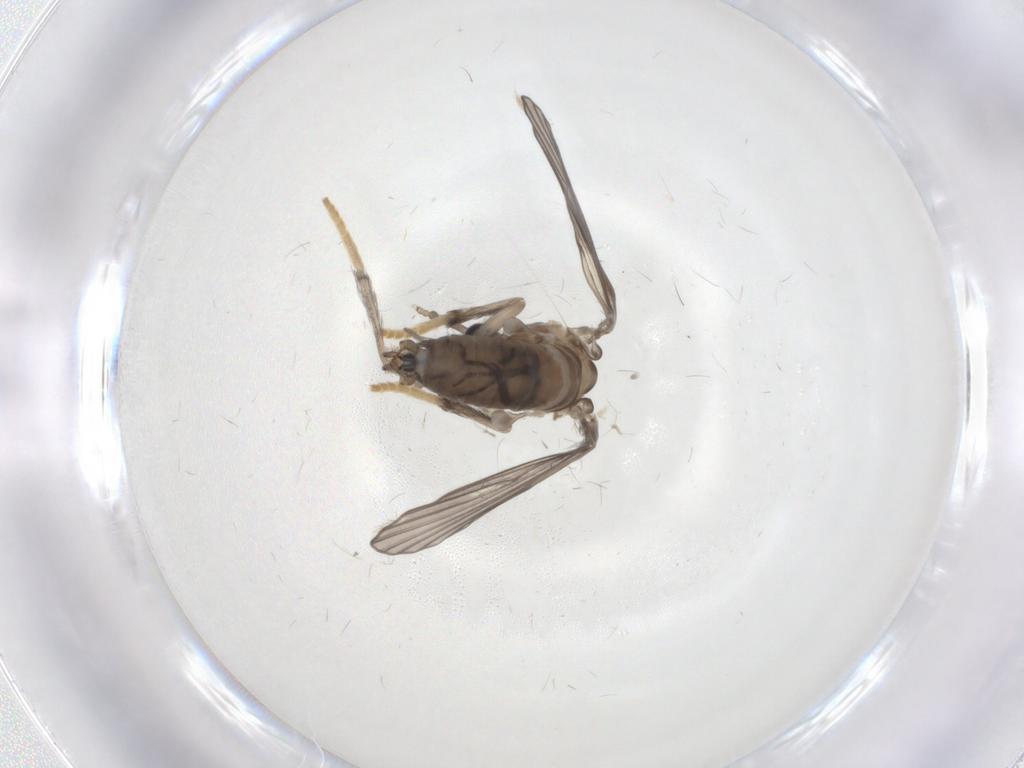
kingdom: Animalia
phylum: Arthropoda
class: Insecta
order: Diptera
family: Psychodidae
